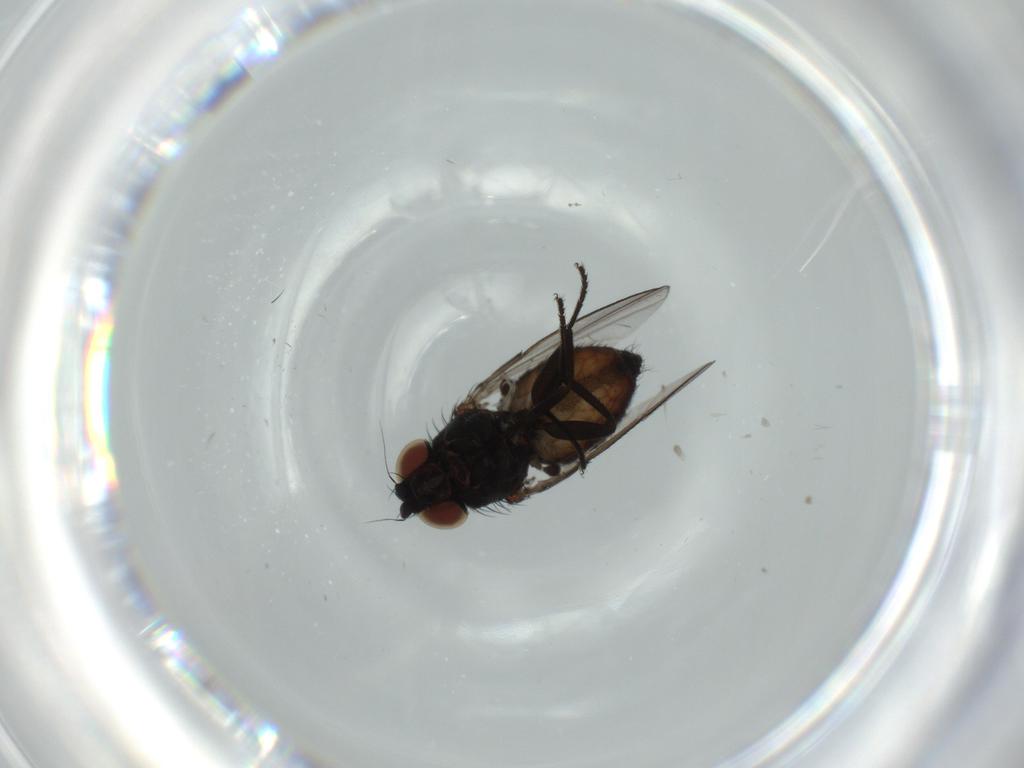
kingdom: Animalia
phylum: Arthropoda
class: Insecta
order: Diptera
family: Milichiidae
